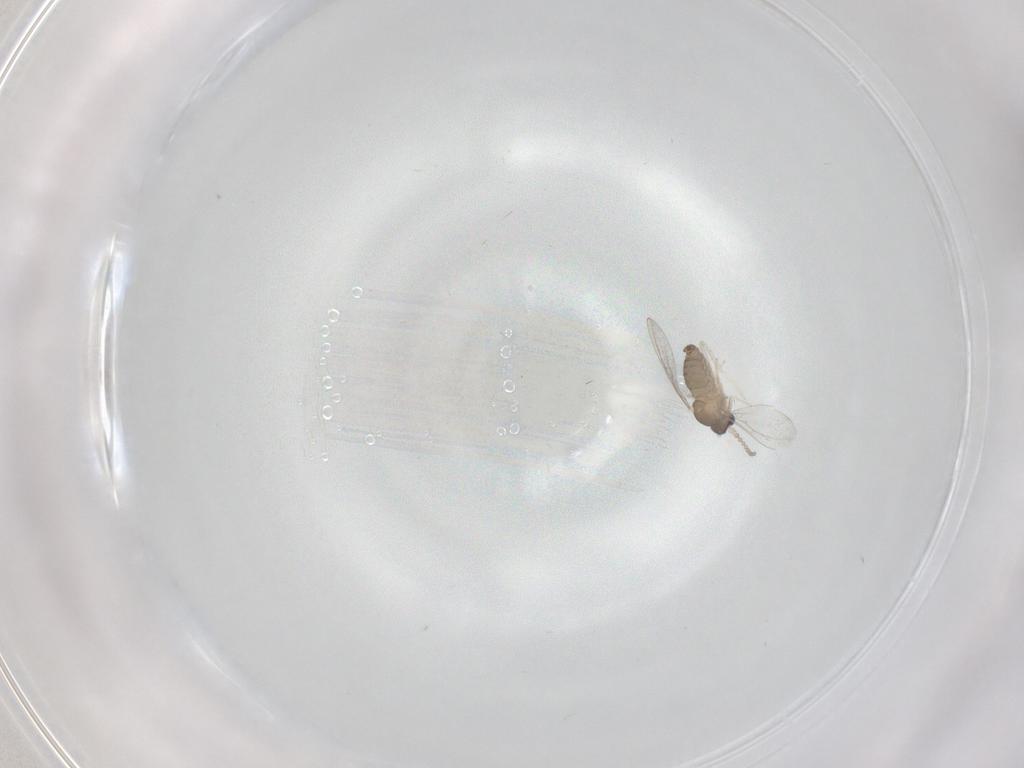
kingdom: Animalia
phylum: Arthropoda
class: Insecta
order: Diptera
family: Cecidomyiidae
